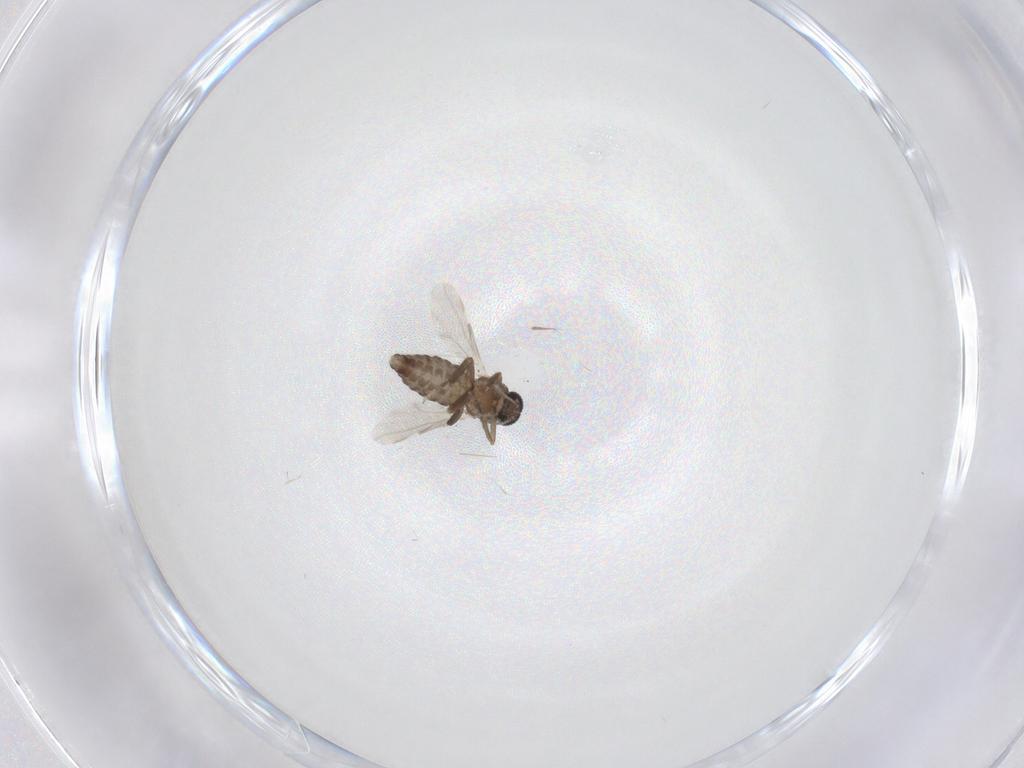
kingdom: Animalia
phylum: Arthropoda
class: Insecta
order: Diptera
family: Ceratopogonidae
